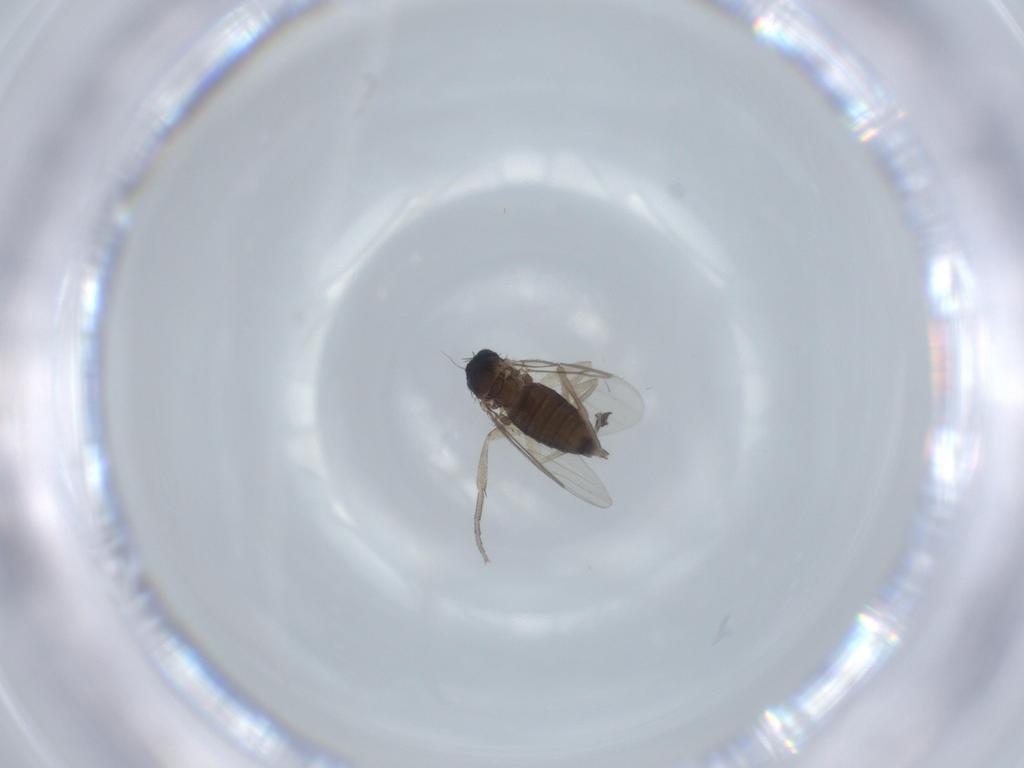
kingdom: Animalia
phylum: Arthropoda
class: Insecta
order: Diptera
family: Phoridae
